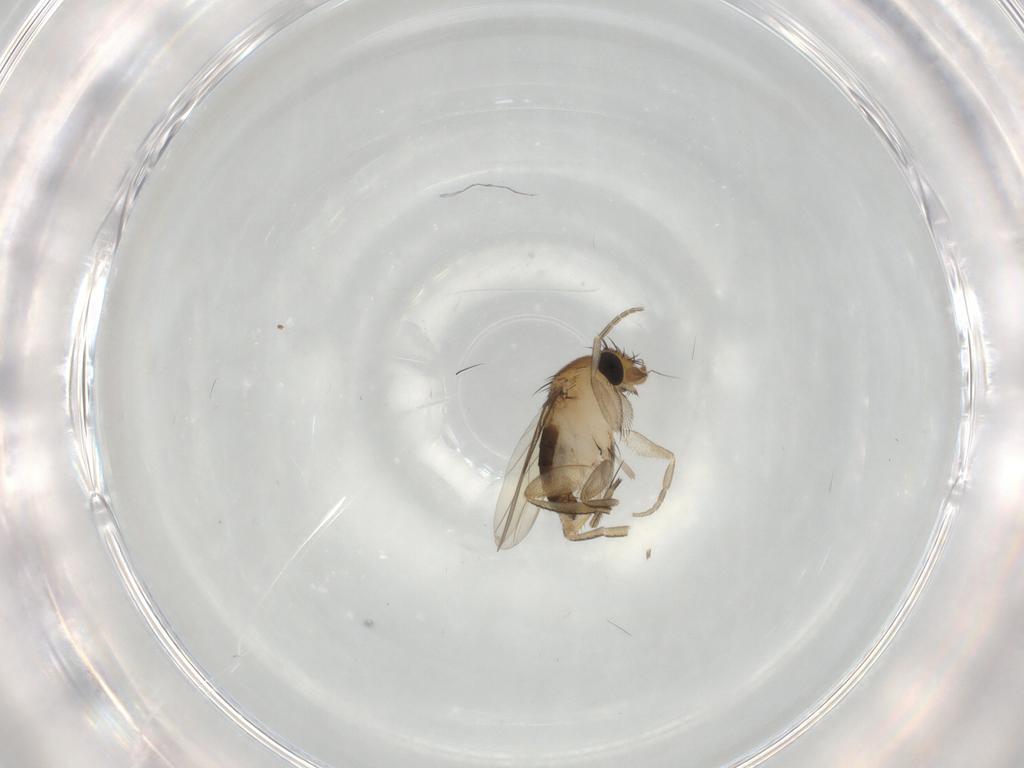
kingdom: Animalia
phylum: Arthropoda
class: Insecta
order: Diptera
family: Phoridae
